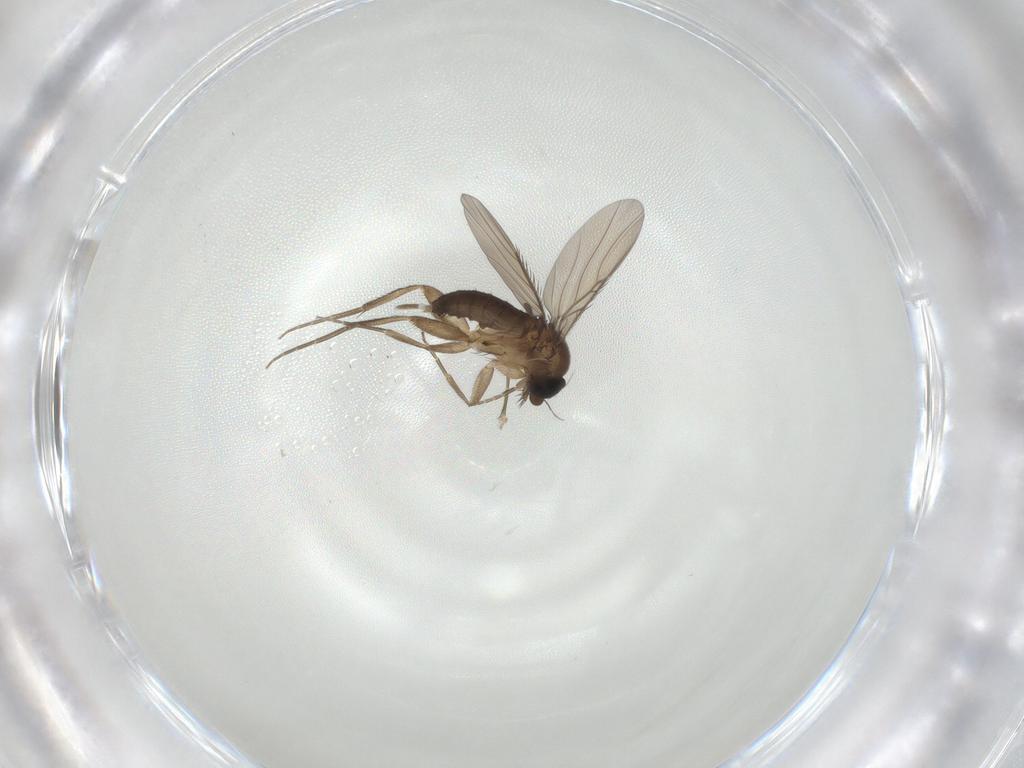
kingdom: Animalia
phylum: Arthropoda
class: Insecta
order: Diptera
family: Phoridae
